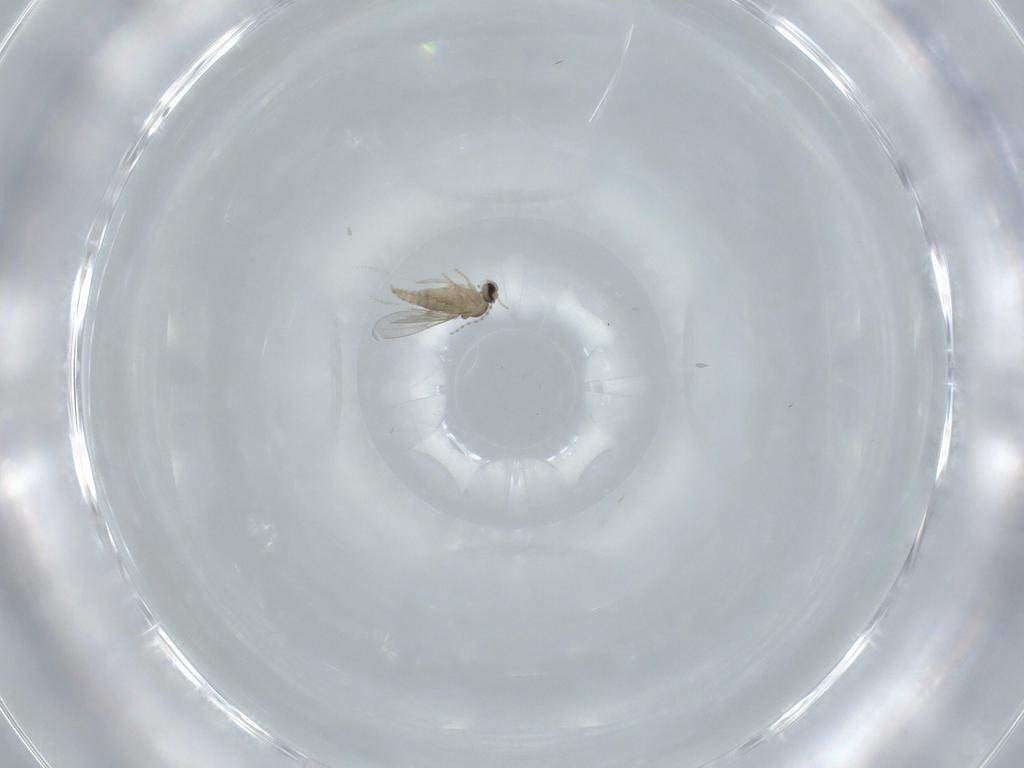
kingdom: Animalia
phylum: Arthropoda
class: Insecta
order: Diptera
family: Cecidomyiidae
